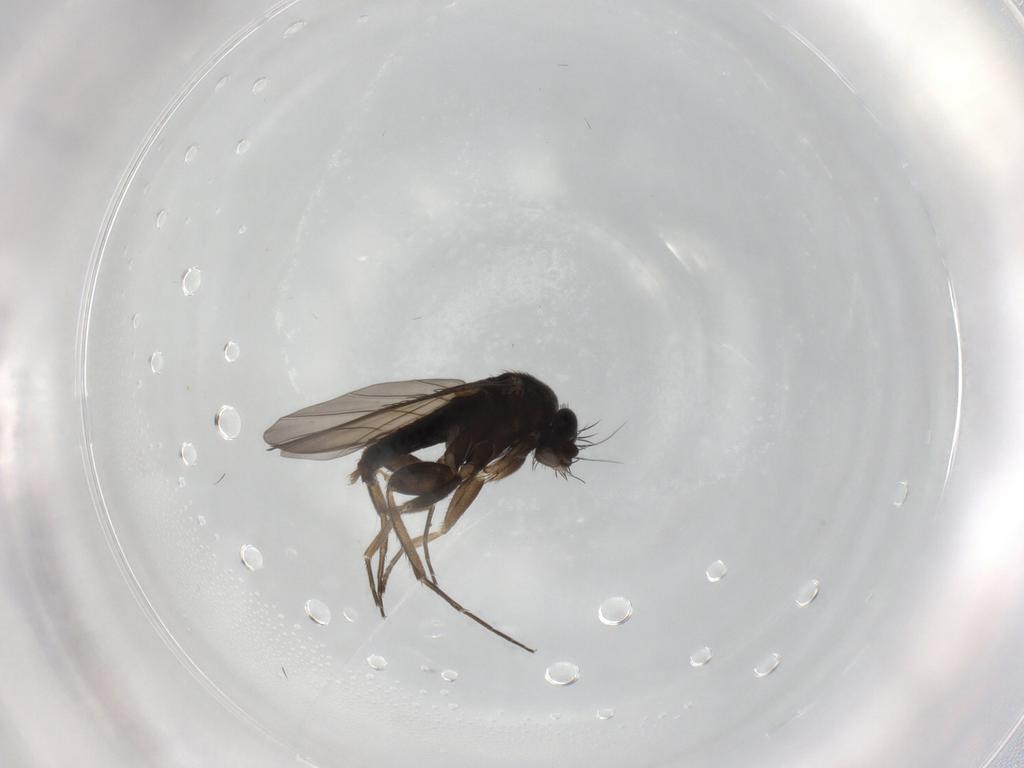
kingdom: Animalia
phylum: Arthropoda
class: Insecta
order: Diptera
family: Phoridae
